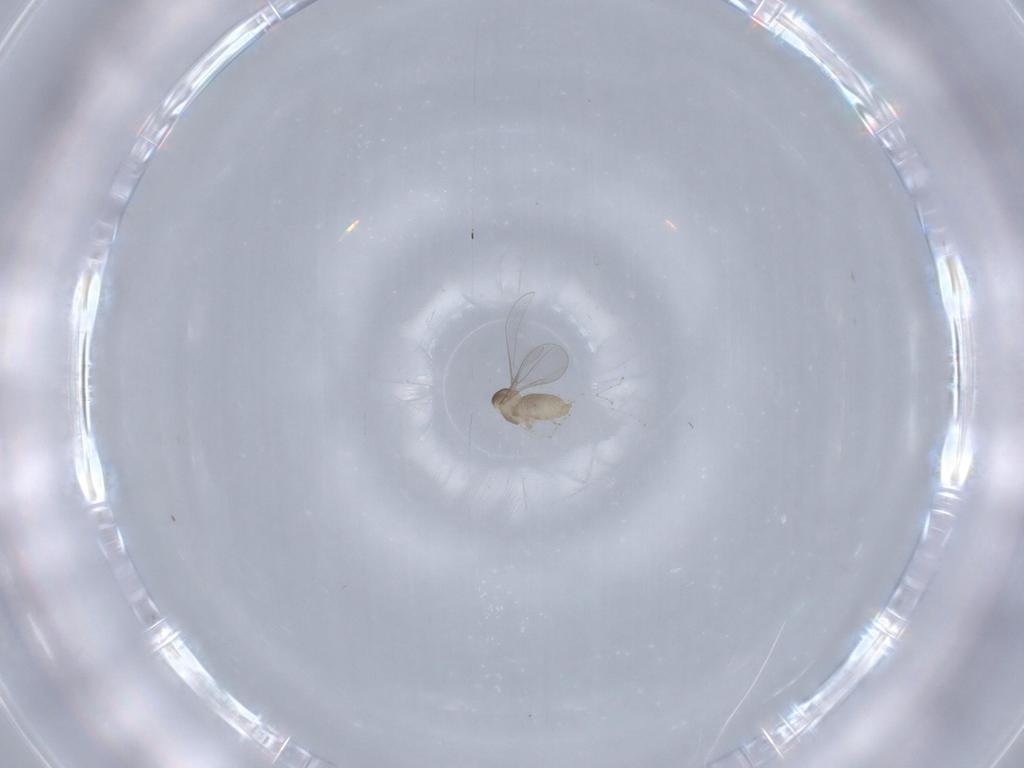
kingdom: Animalia
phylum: Arthropoda
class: Insecta
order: Diptera
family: Cecidomyiidae
